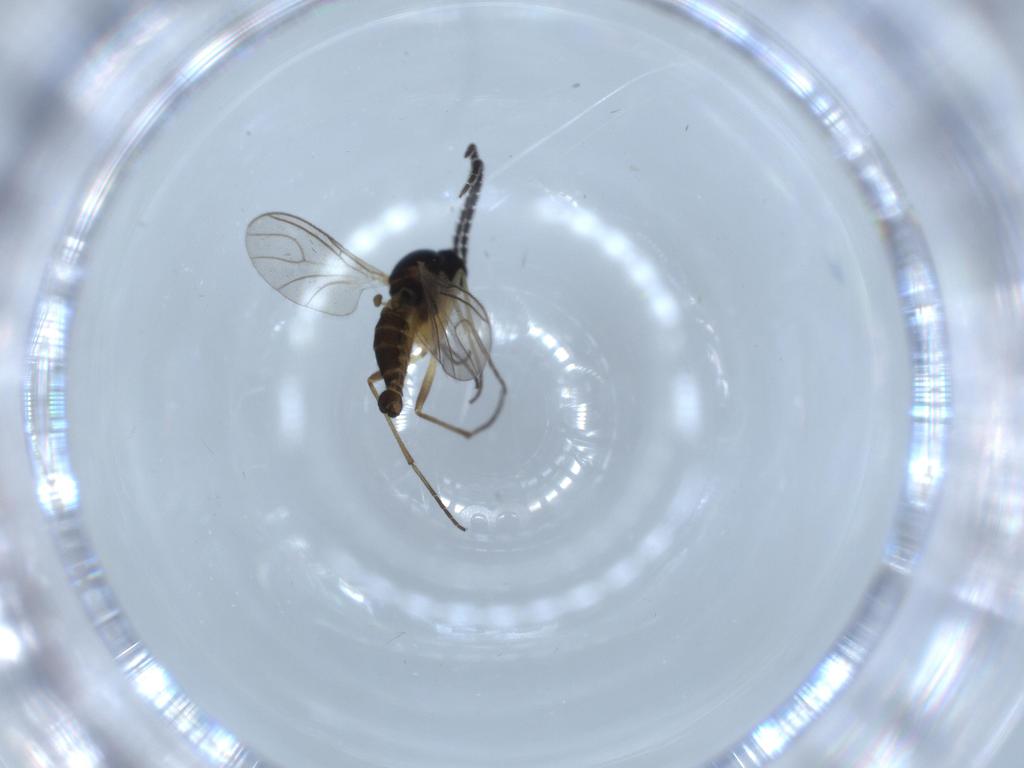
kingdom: Animalia
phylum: Arthropoda
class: Insecta
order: Diptera
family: Sciaridae
